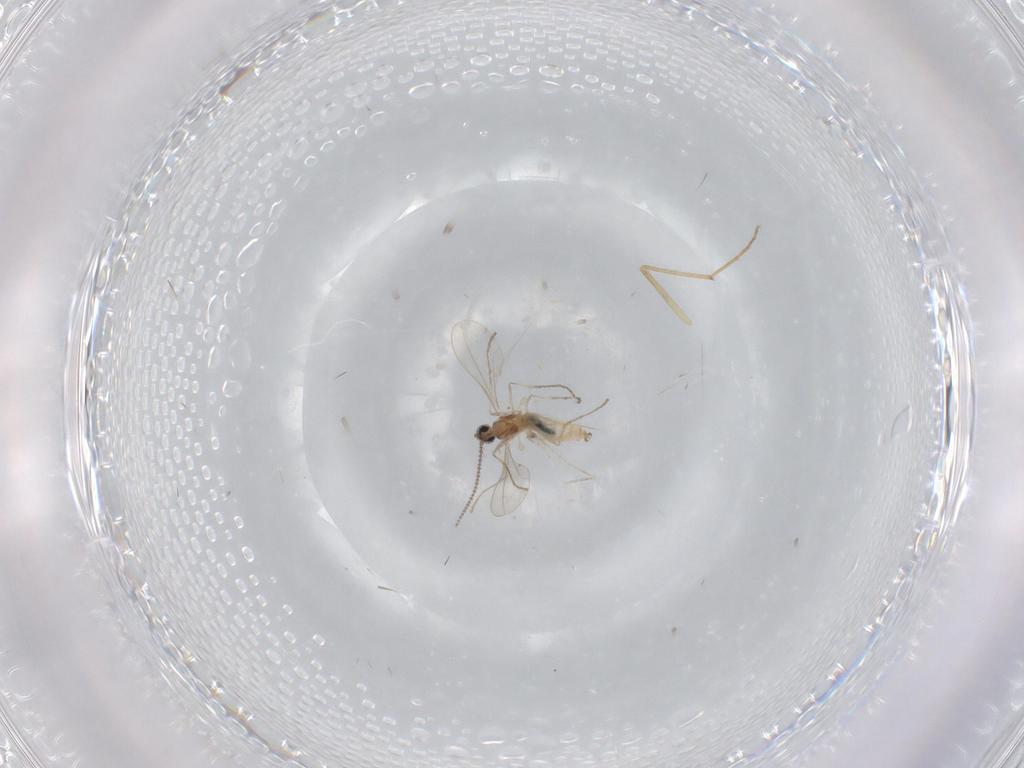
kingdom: Animalia
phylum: Arthropoda
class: Insecta
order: Diptera
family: Cecidomyiidae
